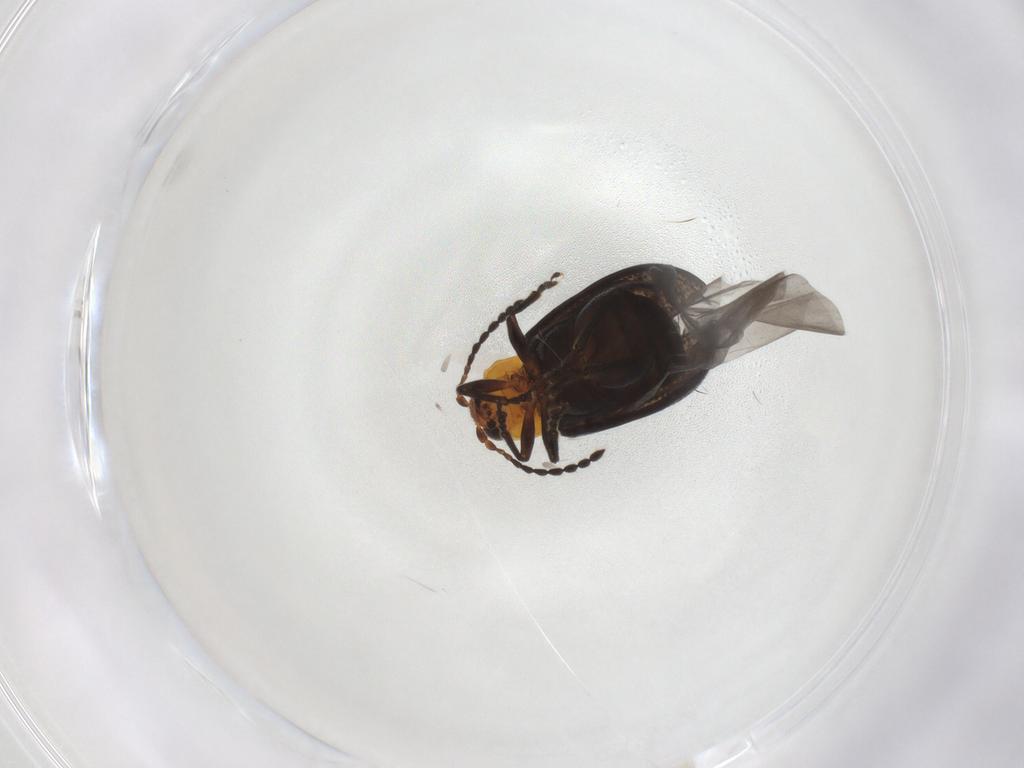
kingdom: Animalia
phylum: Arthropoda
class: Insecta
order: Coleoptera
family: Chrysomelidae
